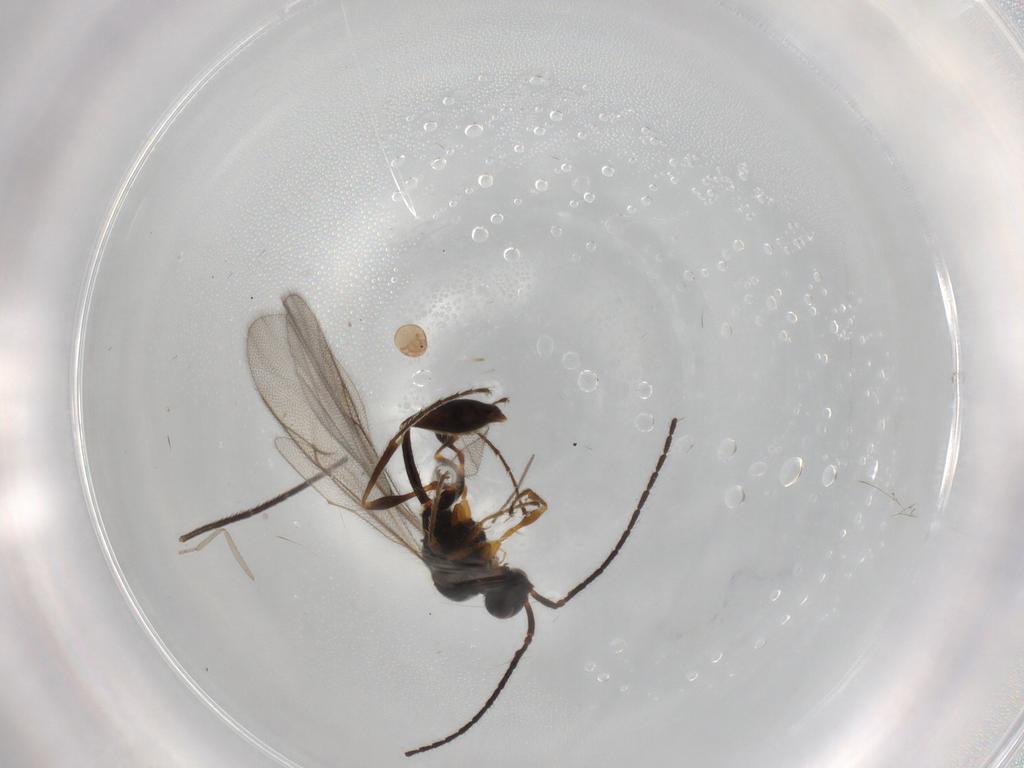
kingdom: Animalia
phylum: Arthropoda
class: Insecta
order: Hymenoptera
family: Diapriidae
